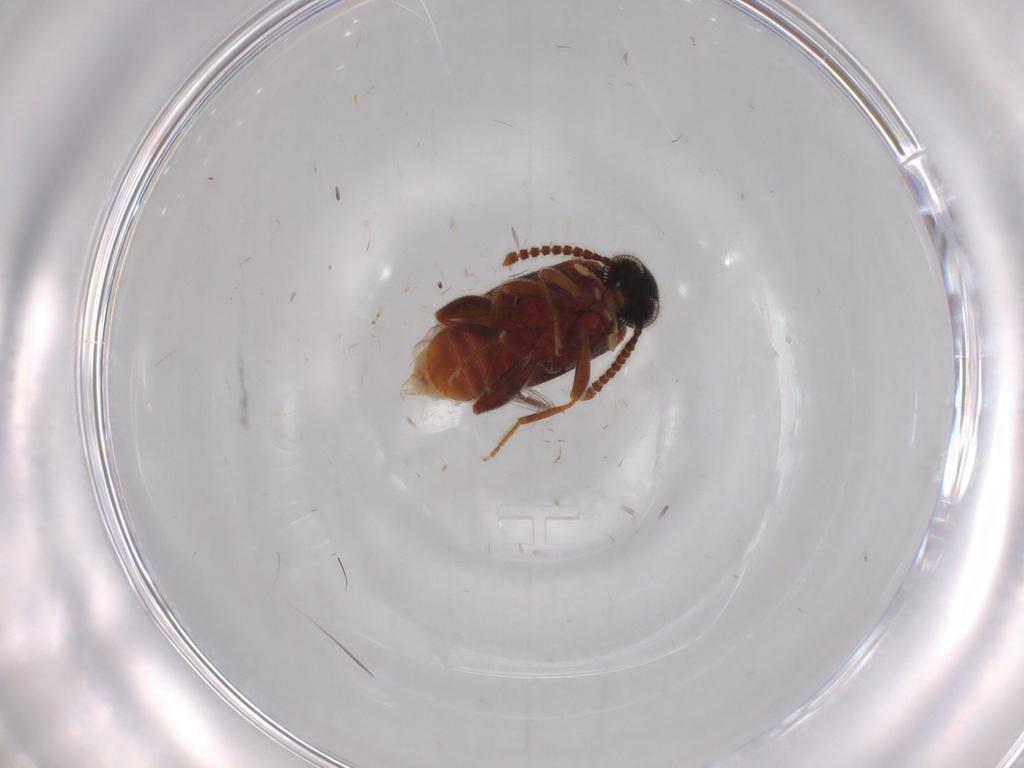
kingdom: Animalia
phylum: Arthropoda
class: Insecta
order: Coleoptera
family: Aderidae
